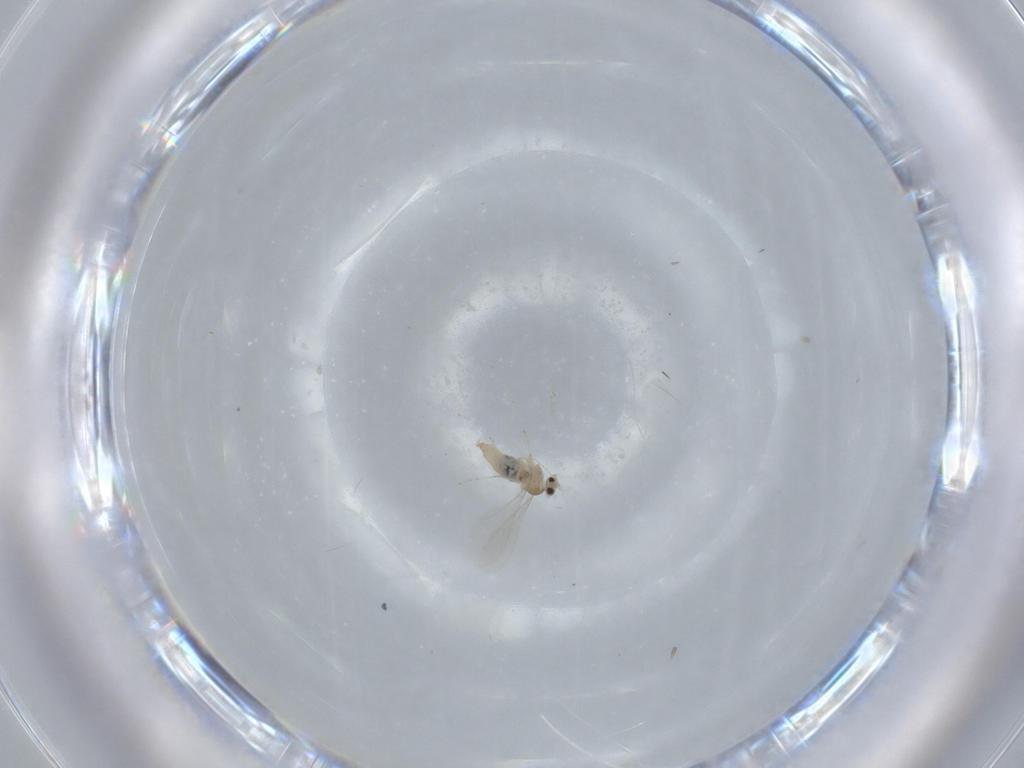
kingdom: Animalia
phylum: Arthropoda
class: Insecta
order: Diptera
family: Cecidomyiidae
